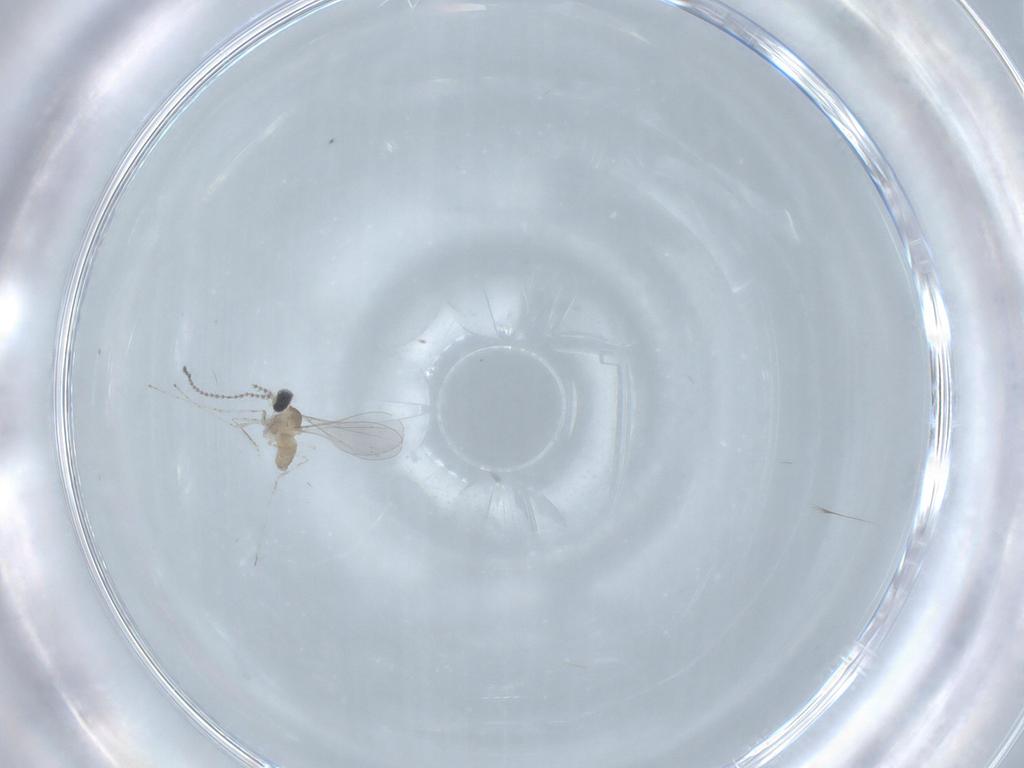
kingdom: Animalia
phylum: Arthropoda
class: Insecta
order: Diptera
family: Cecidomyiidae
